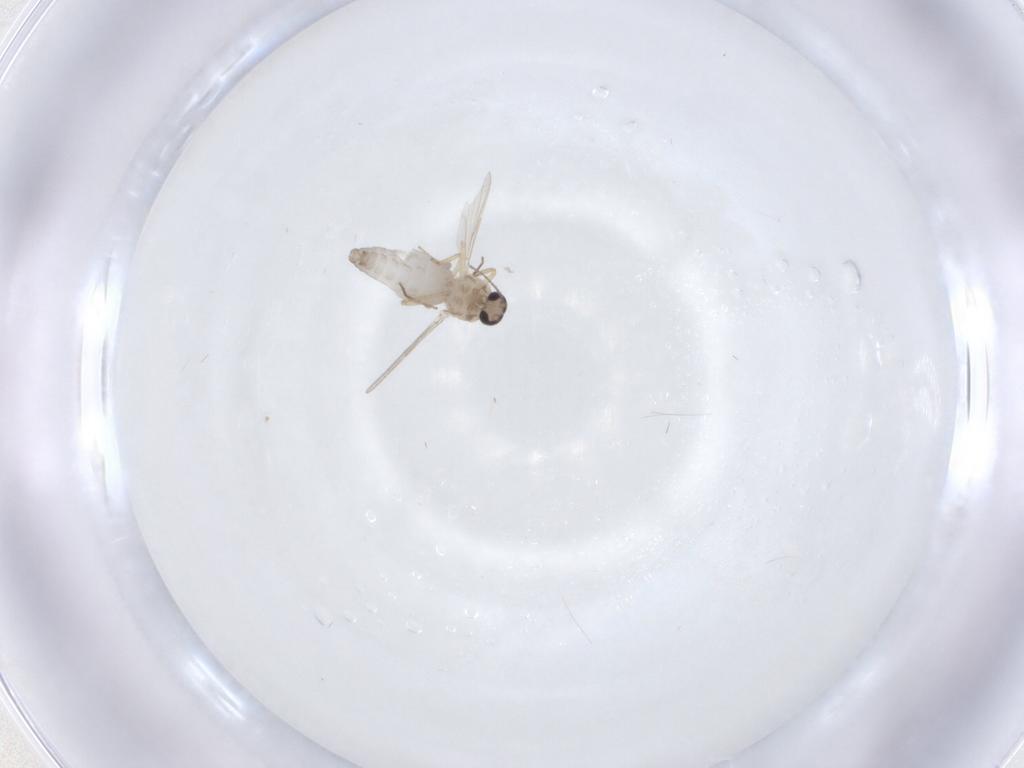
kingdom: Animalia
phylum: Arthropoda
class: Insecta
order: Diptera
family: Ceratopogonidae
